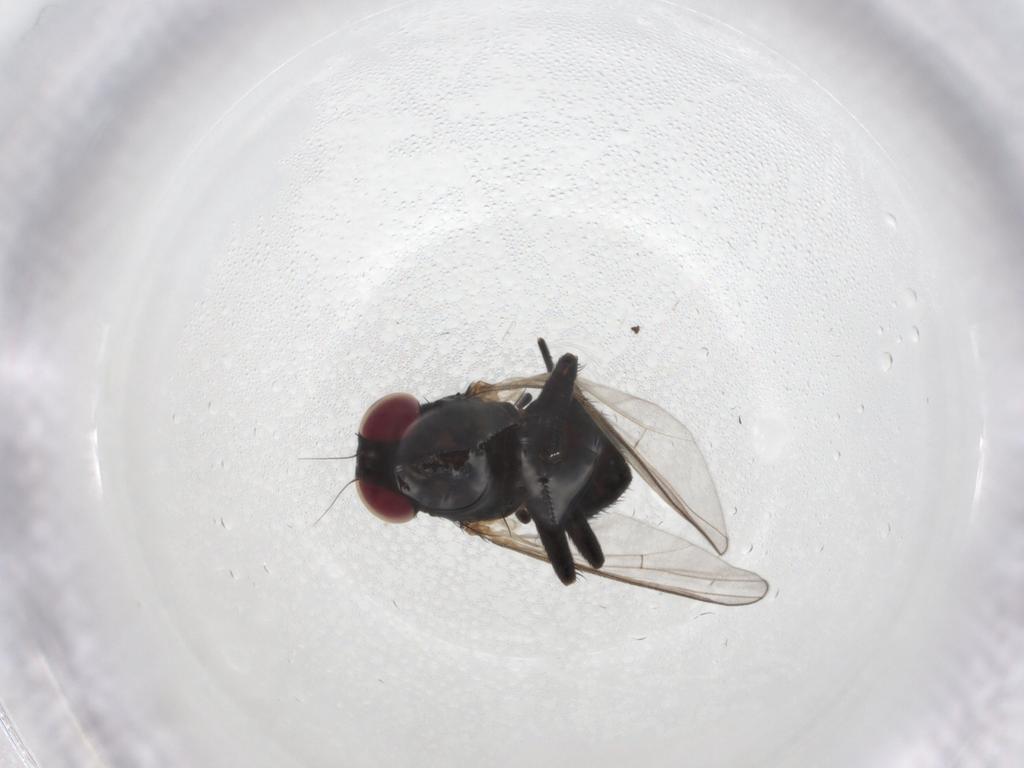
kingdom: Animalia
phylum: Arthropoda
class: Insecta
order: Diptera
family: Agromyzidae
